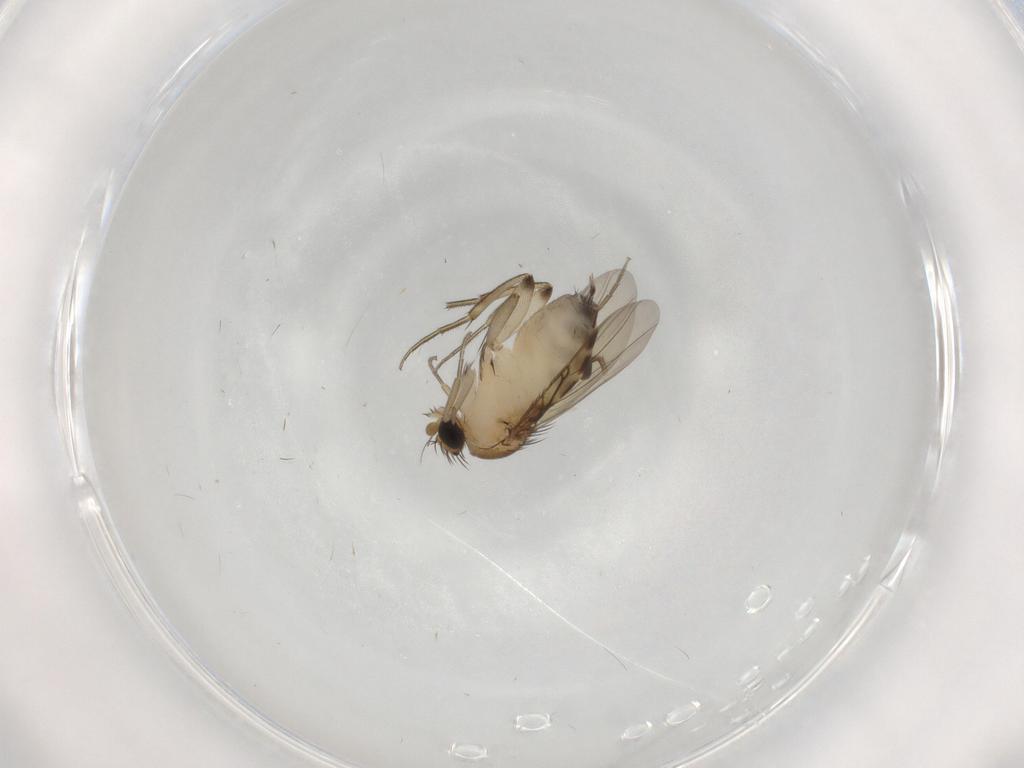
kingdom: Animalia
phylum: Arthropoda
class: Insecta
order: Diptera
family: Phoridae
